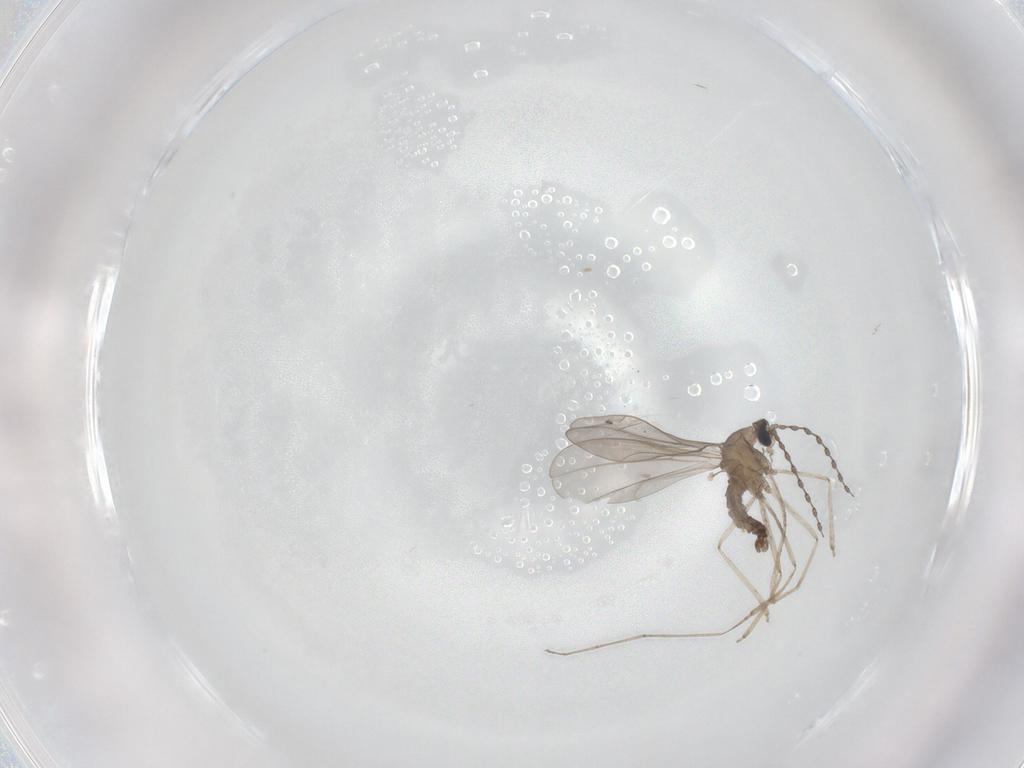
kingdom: Animalia
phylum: Arthropoda
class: Insecta
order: Diptera
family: Cecidomyiidae
